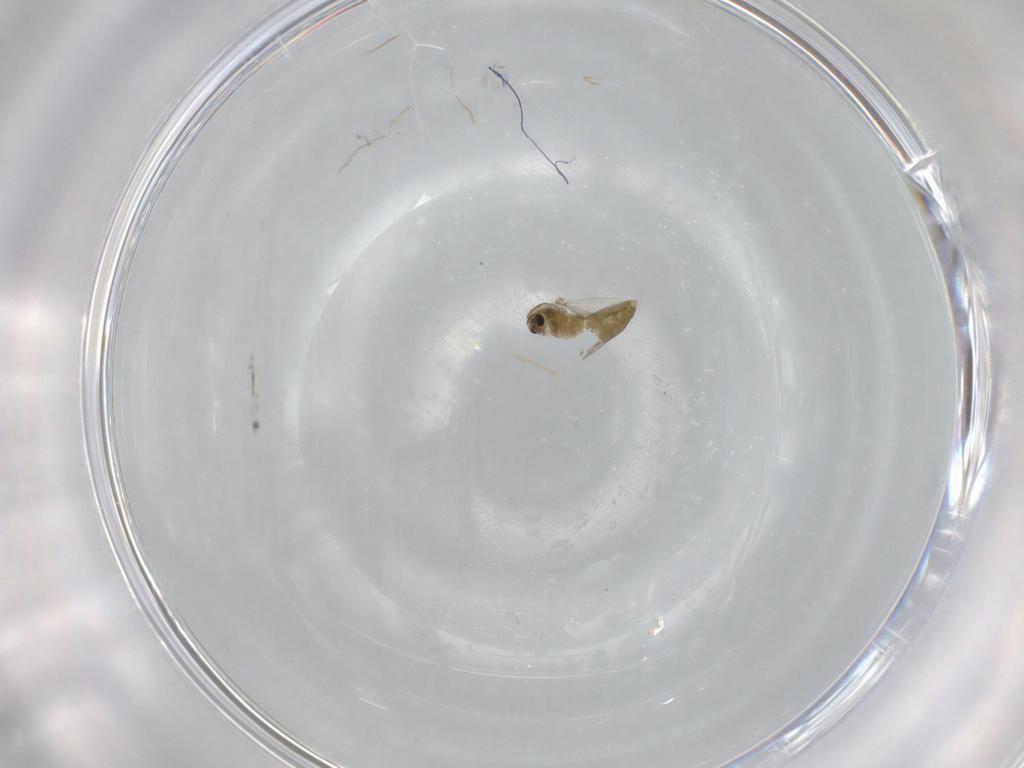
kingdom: Animalia
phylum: Arthropoda
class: Insecta
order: Diptera
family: Chironomidae
